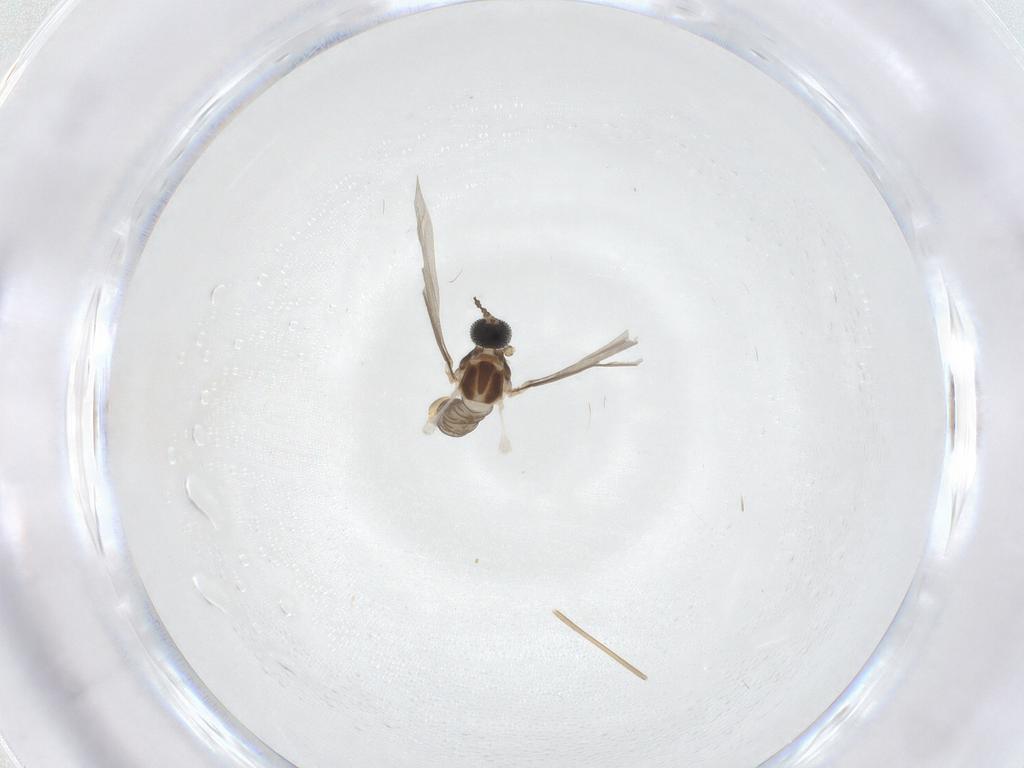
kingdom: Animalia
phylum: Arthropoda
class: Insecta
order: Diptera
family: Cecidomyiidae
